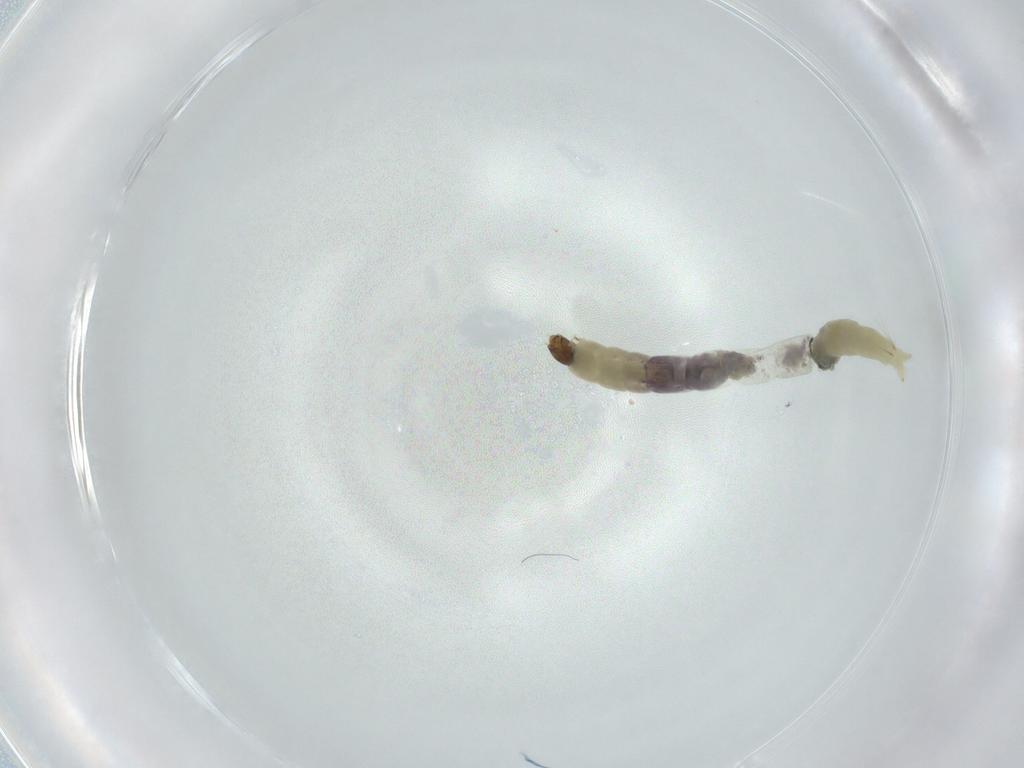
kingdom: Animalia
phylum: Arthropoda
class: Insecta
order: Diptera
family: Chironomidae
